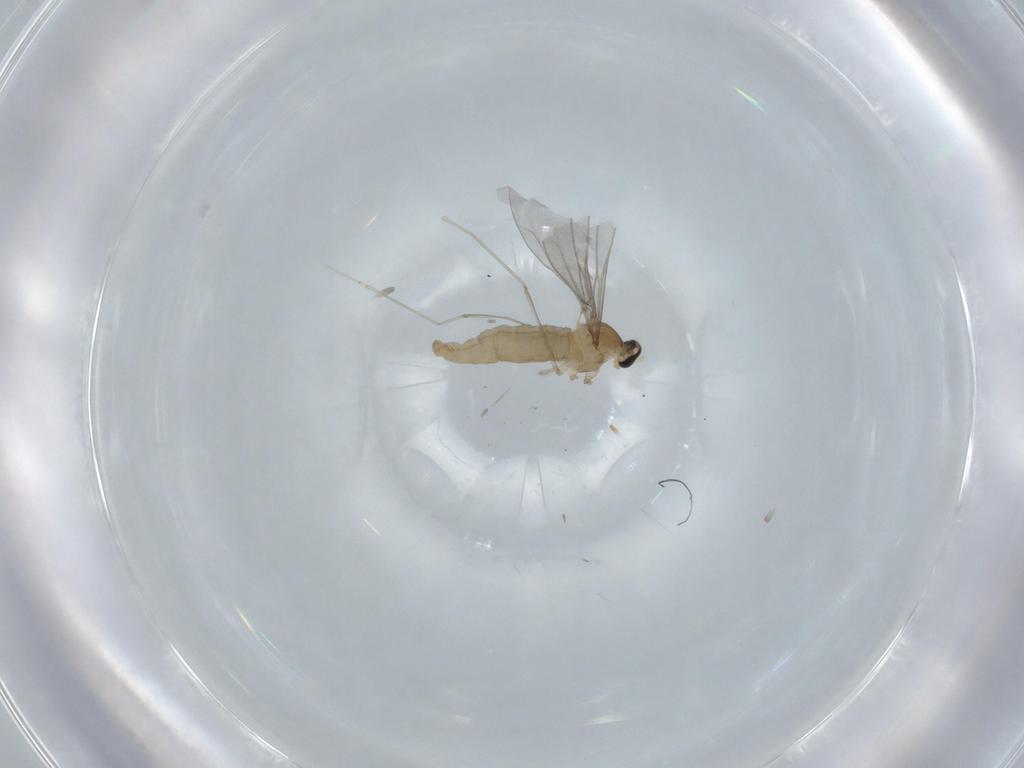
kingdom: Animalia
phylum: Arthropoda
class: Insecta
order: Diptera
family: Cecidomyiidae
